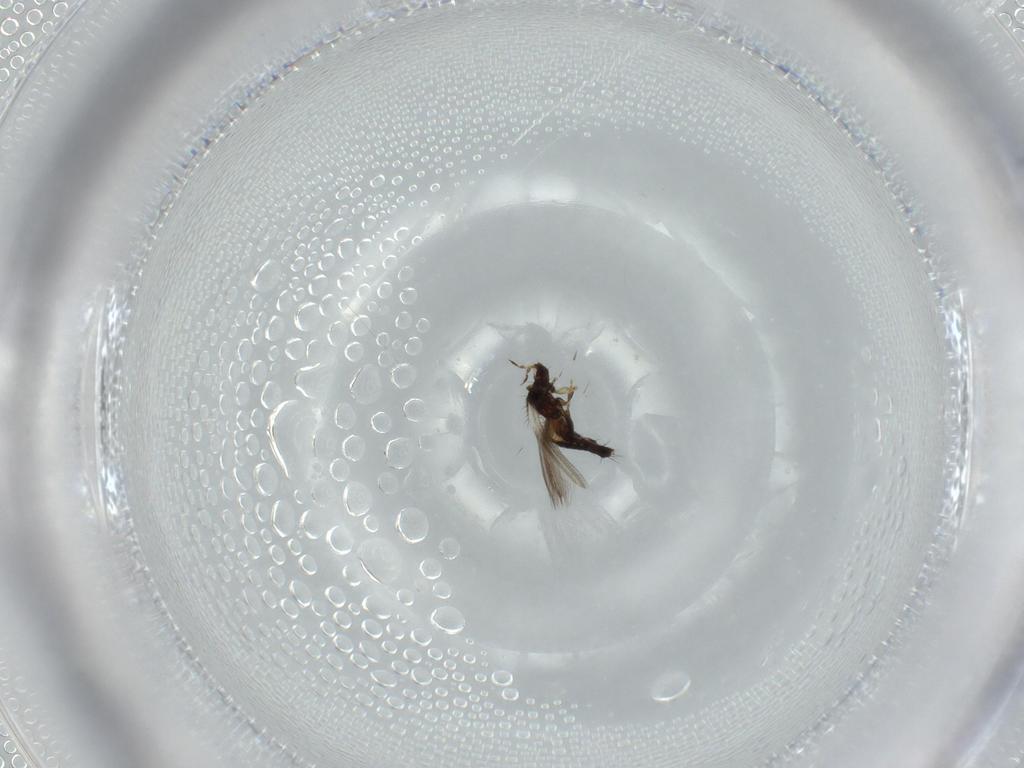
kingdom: Animalia
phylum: Arthropoda
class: Insecta
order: Thysanoptera
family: Thripidae
